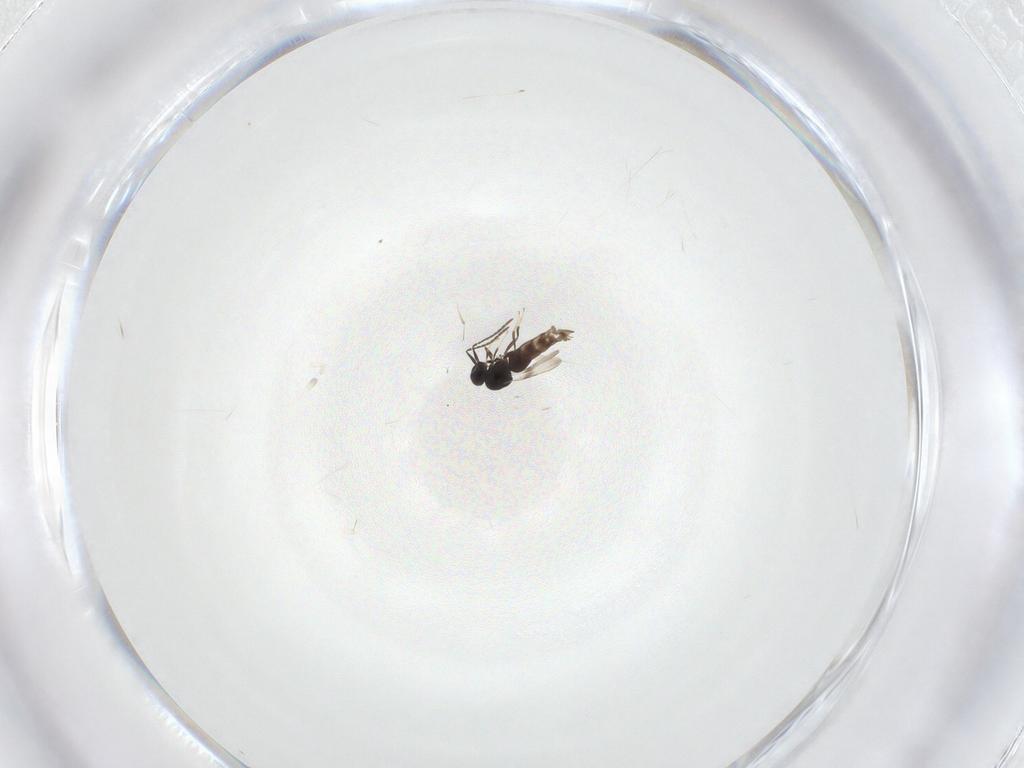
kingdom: Animalia
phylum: Arthropoda
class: Insecta
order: Hymenoptera
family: Ceraphronidae
